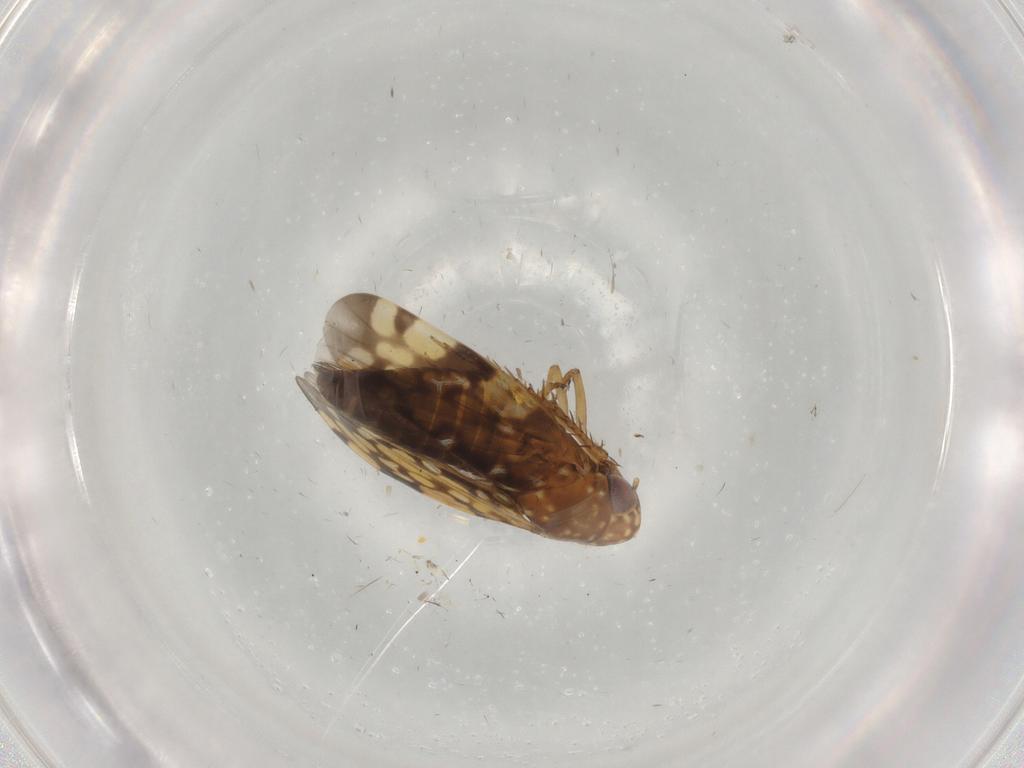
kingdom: Animalia
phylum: Arthropoda
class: Insecta
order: Hemiptera
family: Cicadellidae
